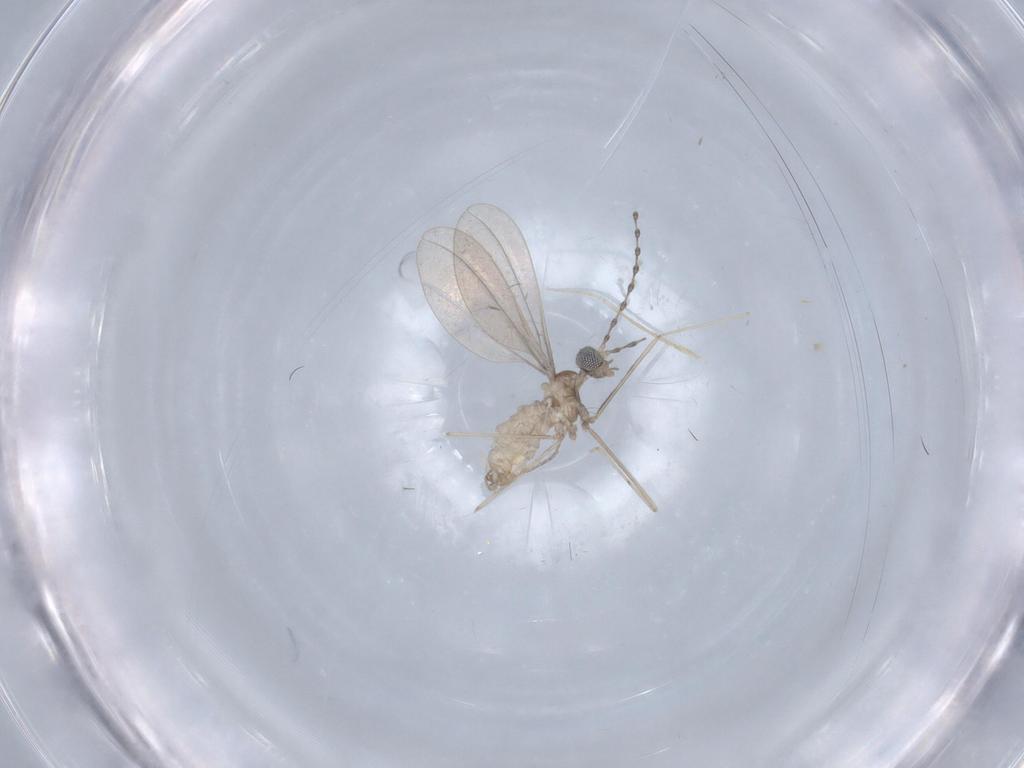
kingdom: Animalia
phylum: Arthropoda
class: Insecta
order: Diptera
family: Cecidomyiidae
